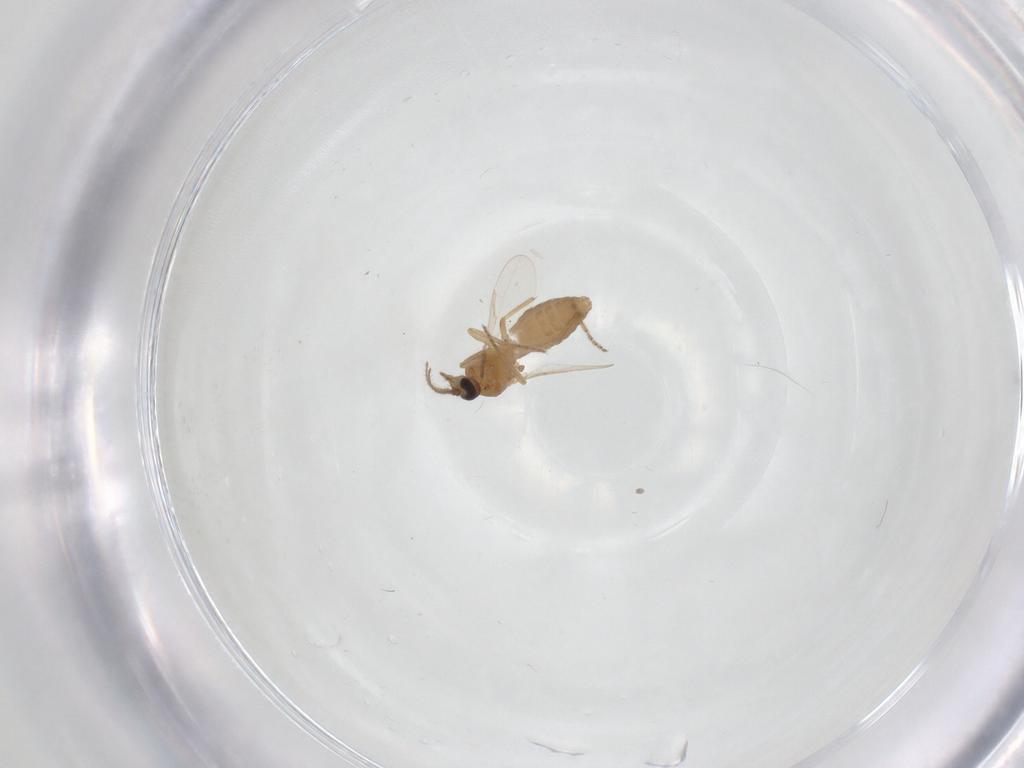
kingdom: Animalia
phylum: Arthropoda
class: Insecta
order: Diptera
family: Ceratopogonidae
